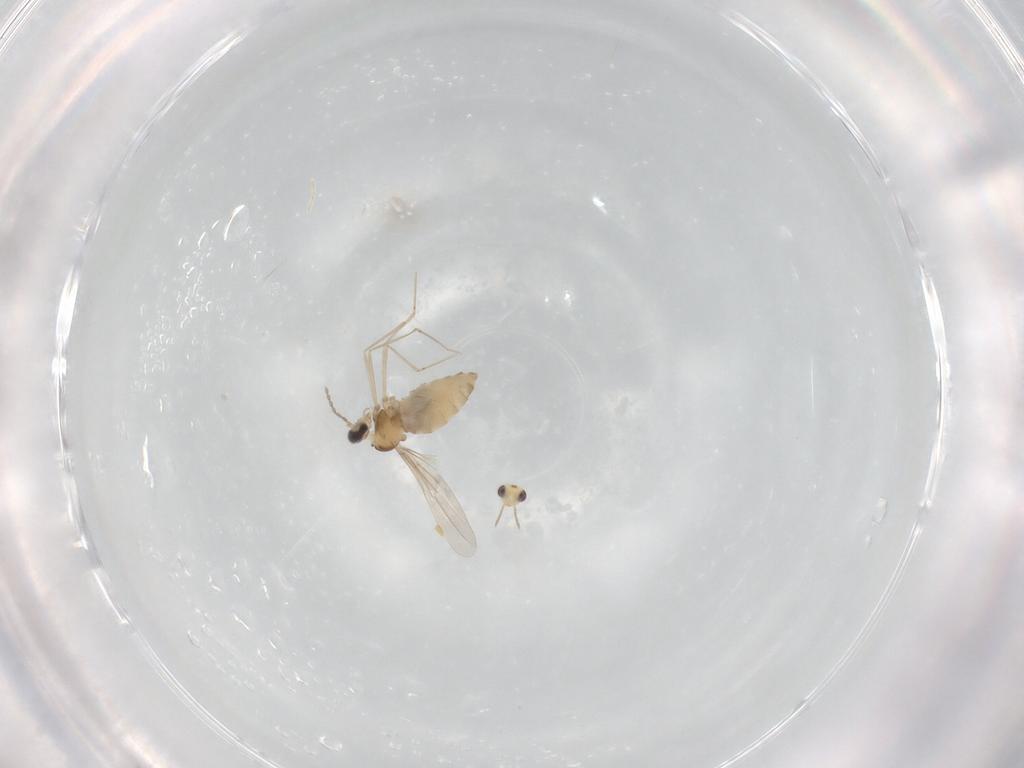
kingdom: Animalia
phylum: Arthropoda
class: Insecta
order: Diptera
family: Cecidomyiidae
